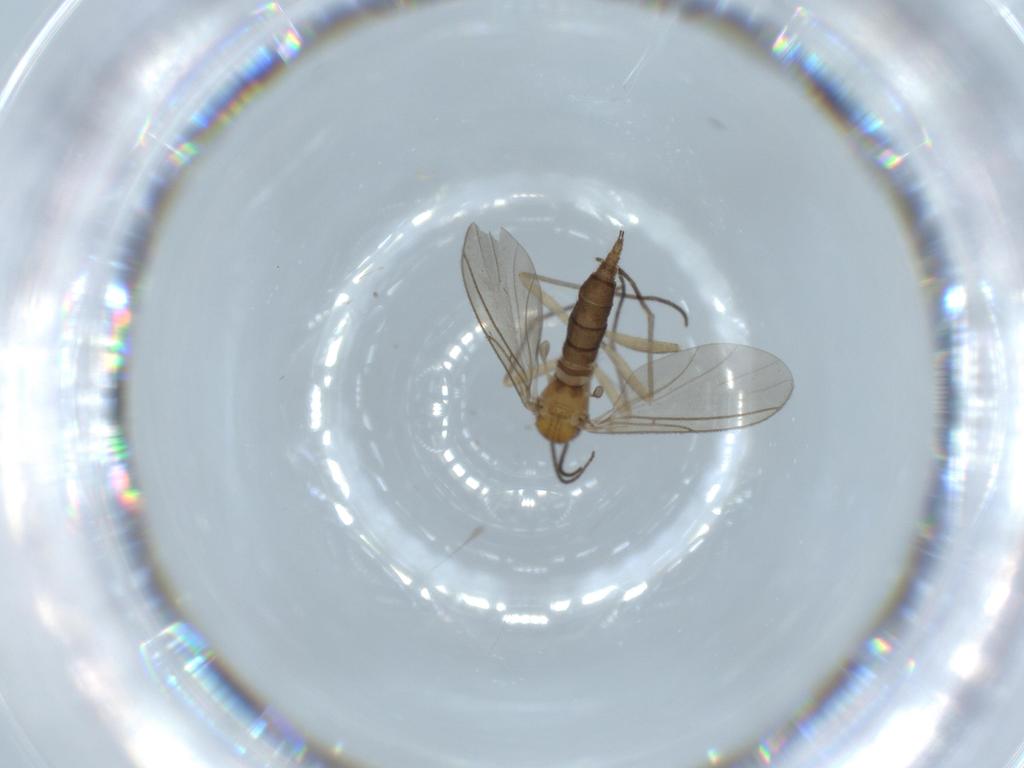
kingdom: Animalia
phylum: Arthropoda
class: Insecta
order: Diptera
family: Sciaridae
